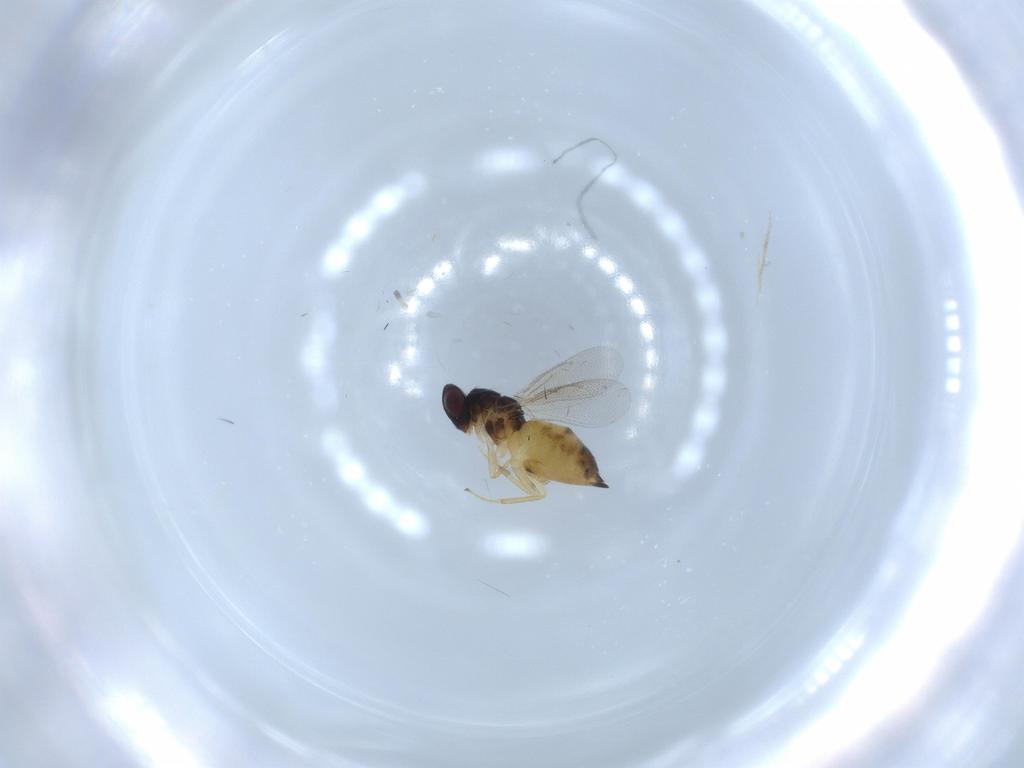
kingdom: Animalia
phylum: Arthropoda
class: Insecta
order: Hymenoptera
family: Eulophidae
